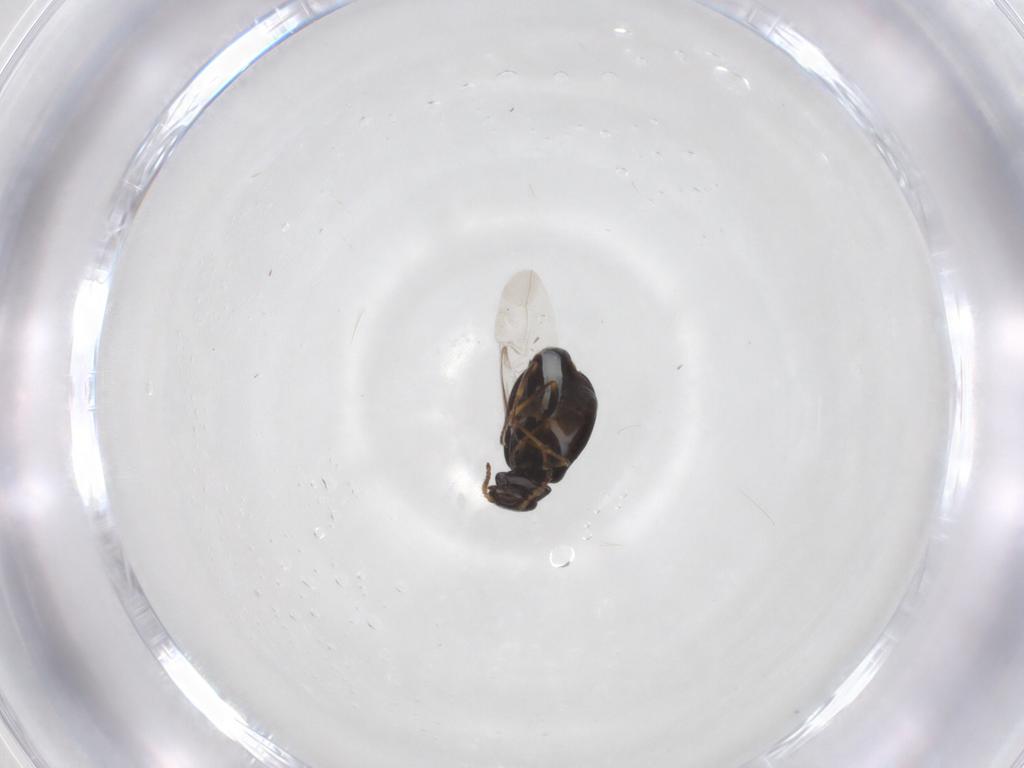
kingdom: Animalia
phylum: Arthropoda
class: Insecta
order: Coleoptera
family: Melyridae
